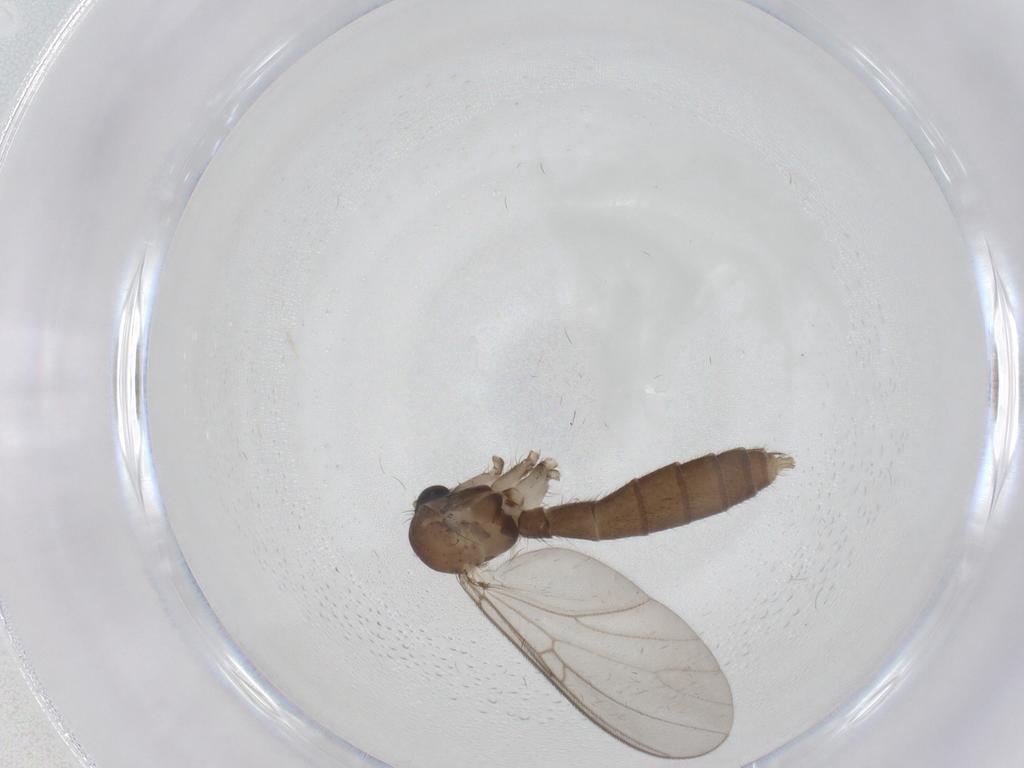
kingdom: Animalia
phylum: Arthropoda
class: Insecta
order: Diptera
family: Mycetophilidae
